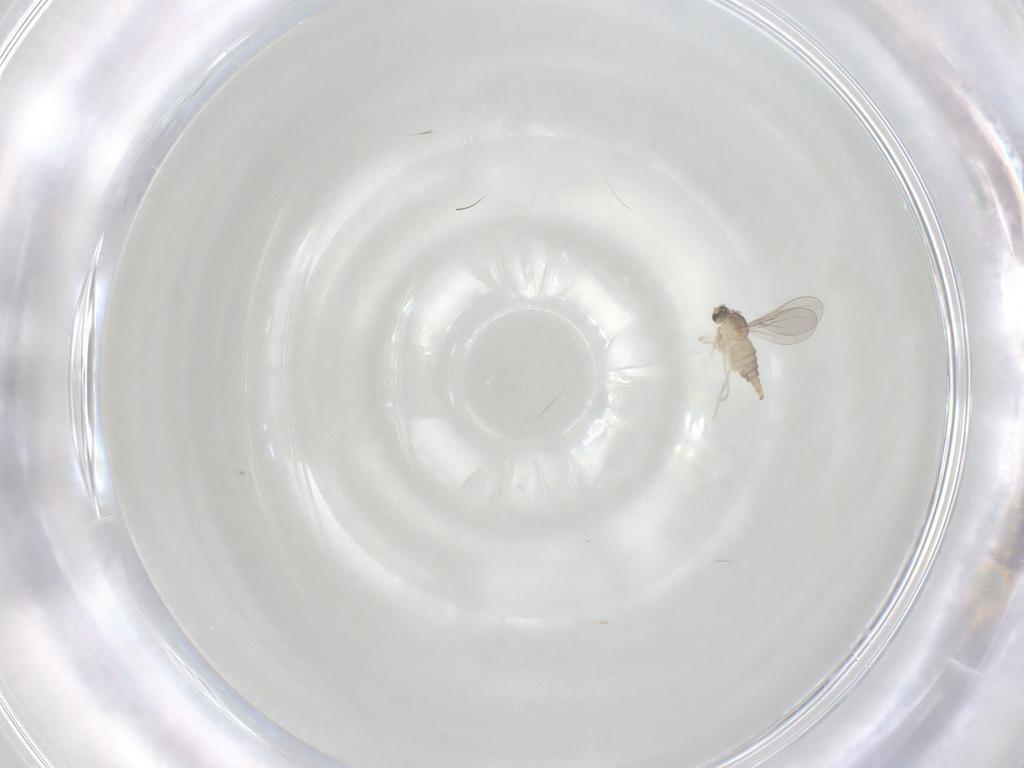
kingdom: Animalia
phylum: Arthropoda
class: Insecta
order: Diptera
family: Cecidomyiidae
